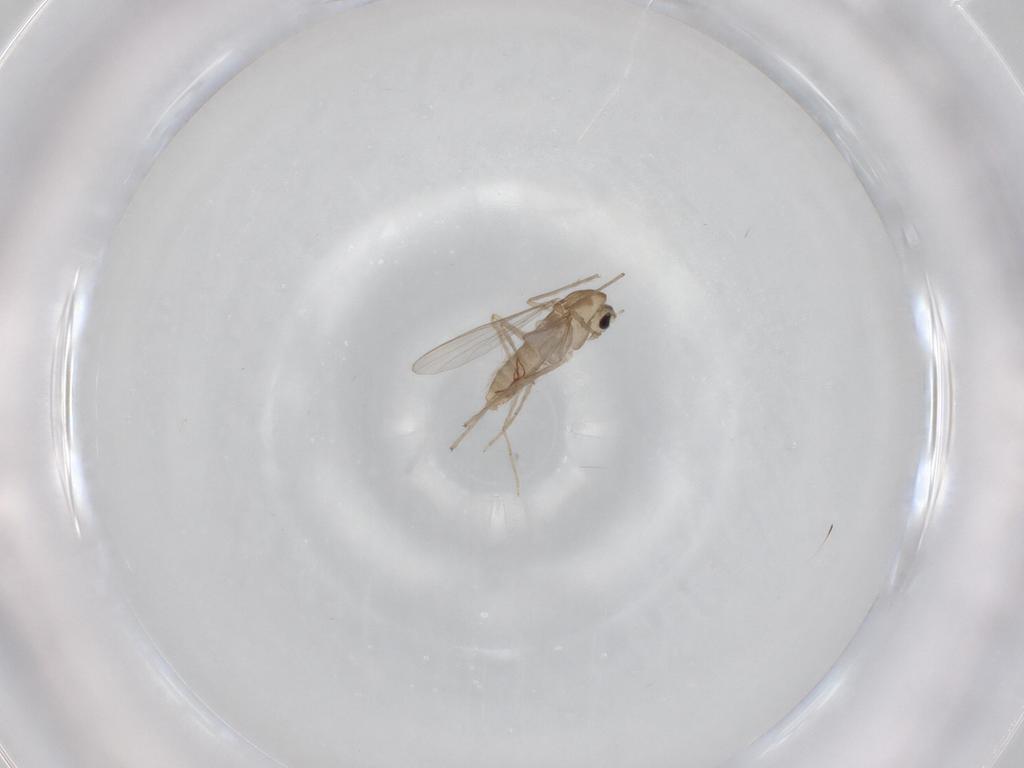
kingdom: Animalia
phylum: Arthropoda
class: Insecta
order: Diptera
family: Chironomidae
